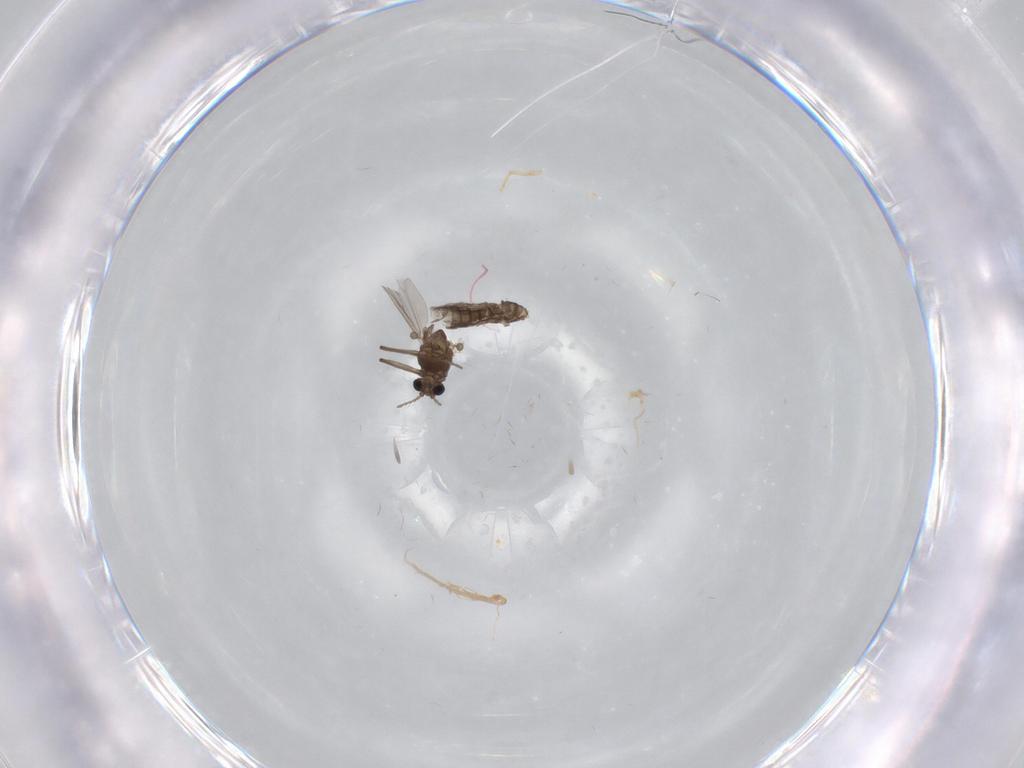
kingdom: Animalia
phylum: Arthropoda
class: Insecta
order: Diptera
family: Chironomidae
